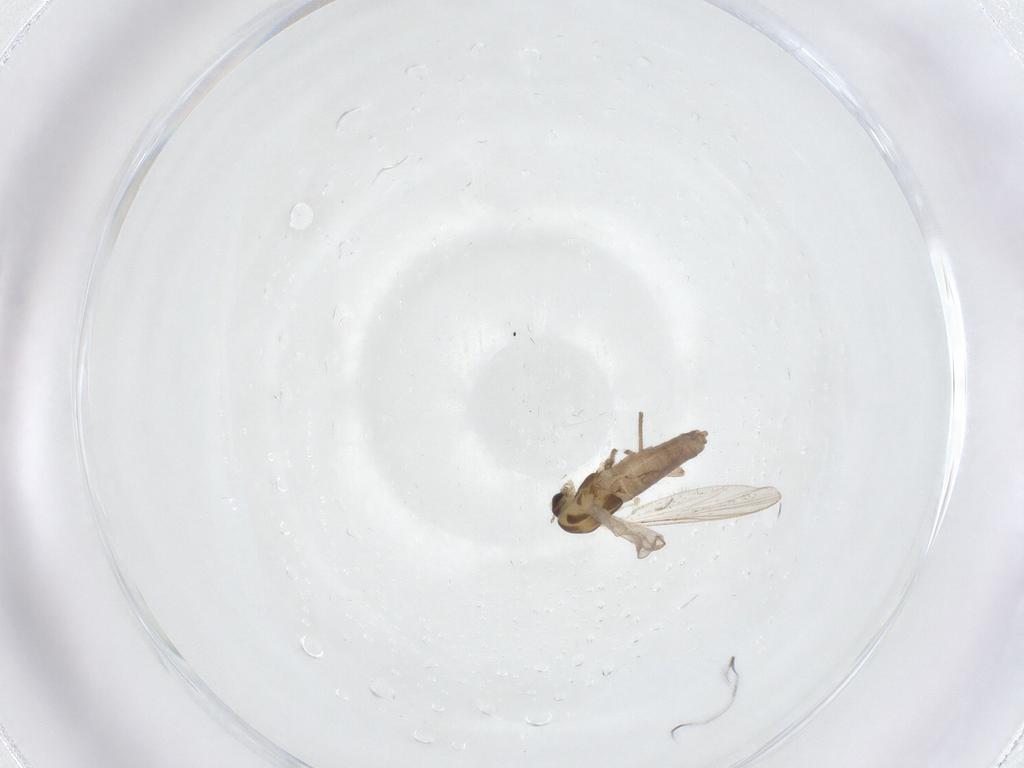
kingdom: Animalia
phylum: Arthropoda
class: Insecta
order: Diptera
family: Chironomidae
